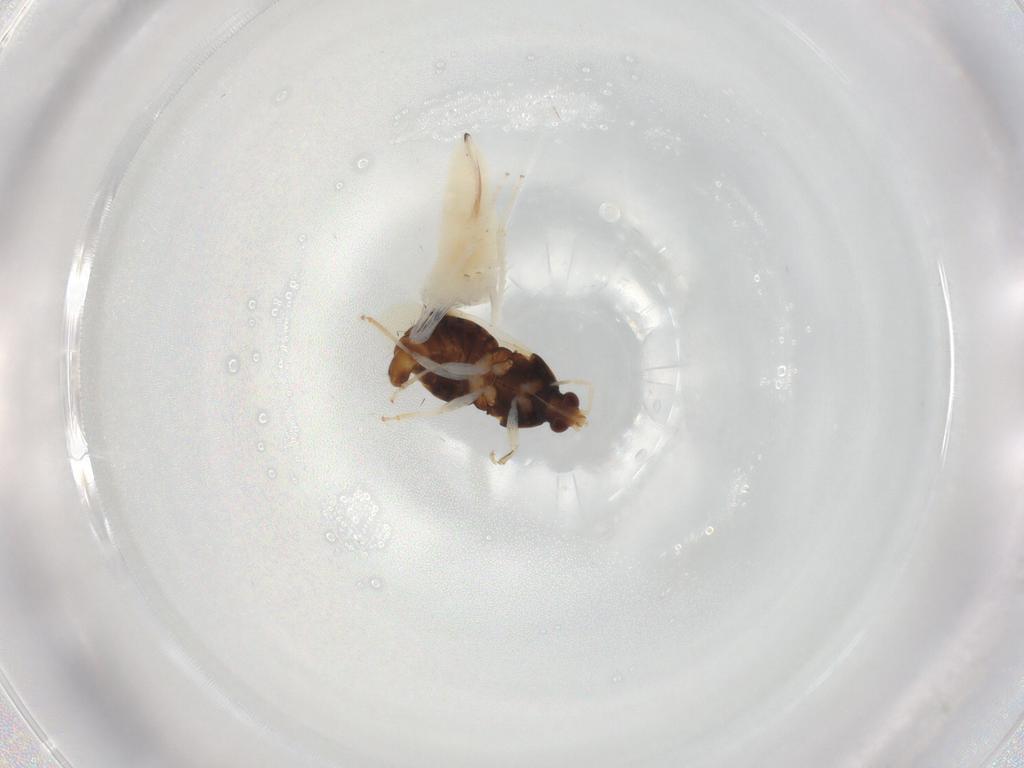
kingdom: Animalia
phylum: Arthropoda
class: Insecta
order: Hemiptera
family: Cicadellidae
